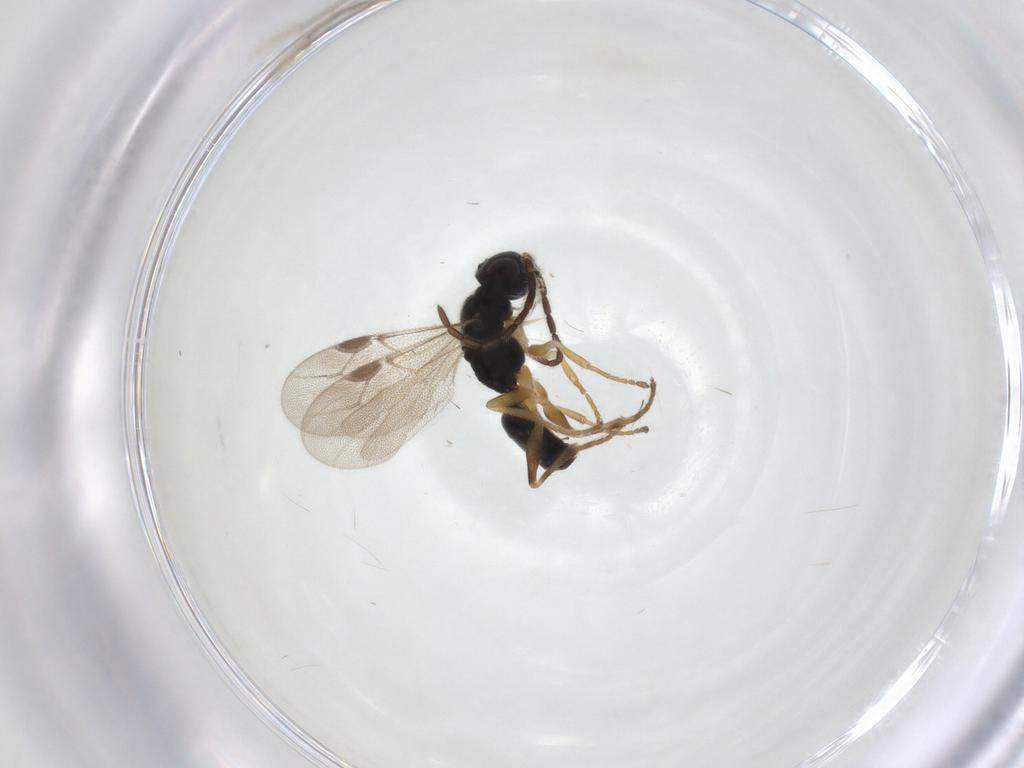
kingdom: Animalia
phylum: Arthropoda
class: Insecta
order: Hymenoptera
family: Dryinidae
